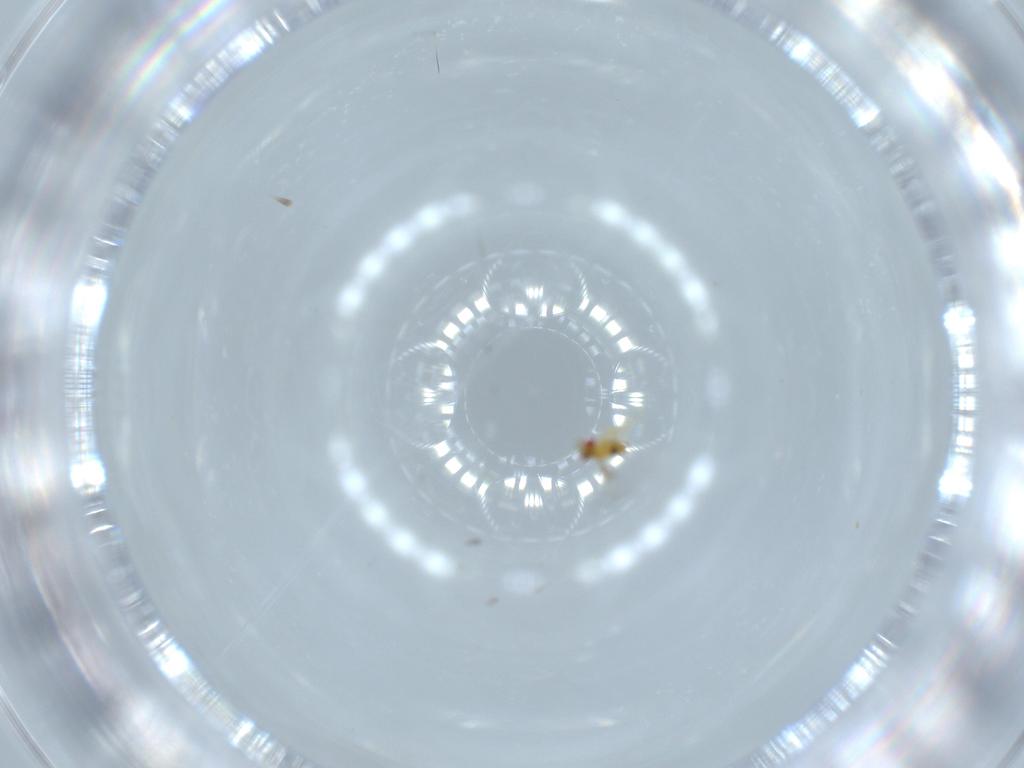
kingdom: Animalia
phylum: Arthropoda
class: Insecta
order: Hymenoptera
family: Trichogrammatidae
